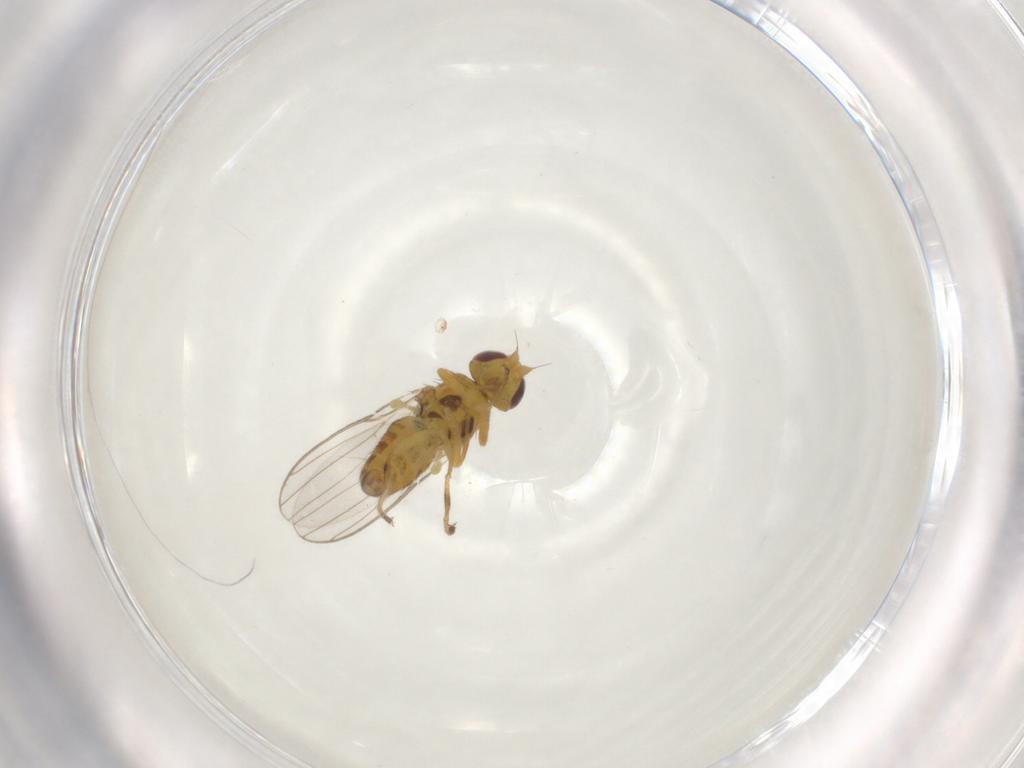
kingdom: Animalia
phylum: Arthropoda
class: Insecta
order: Diptera
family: Chloropidae
